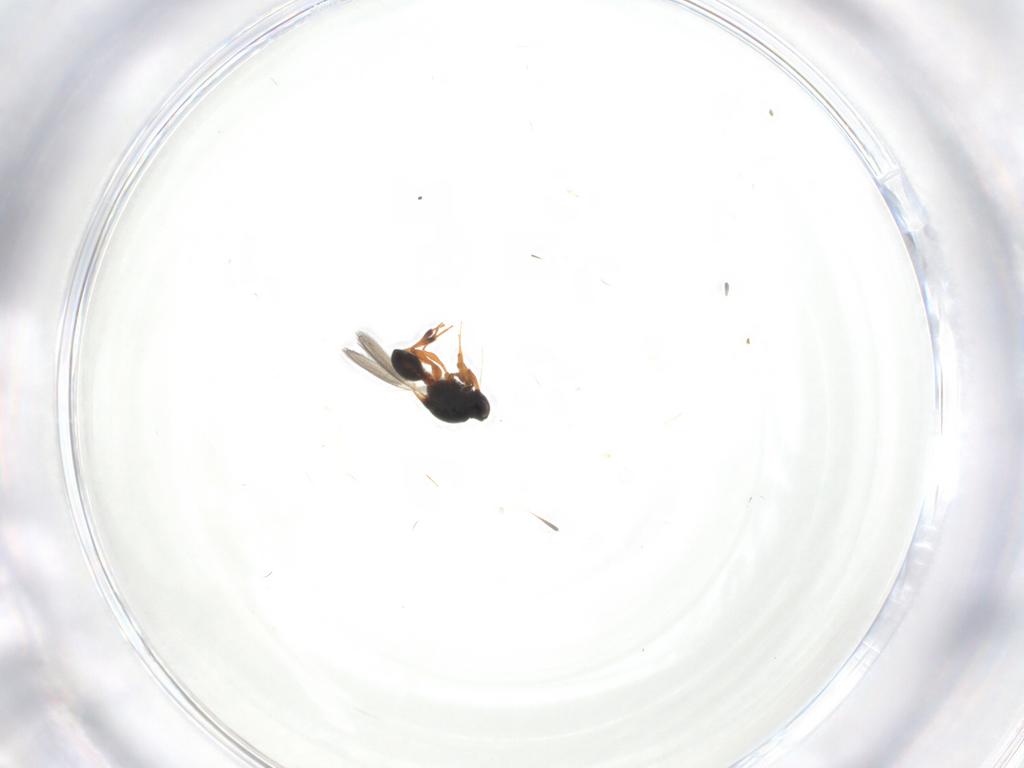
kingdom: Animalia
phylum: Arthropoda
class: Insecta
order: Hymenoptera
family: Platygastridae
